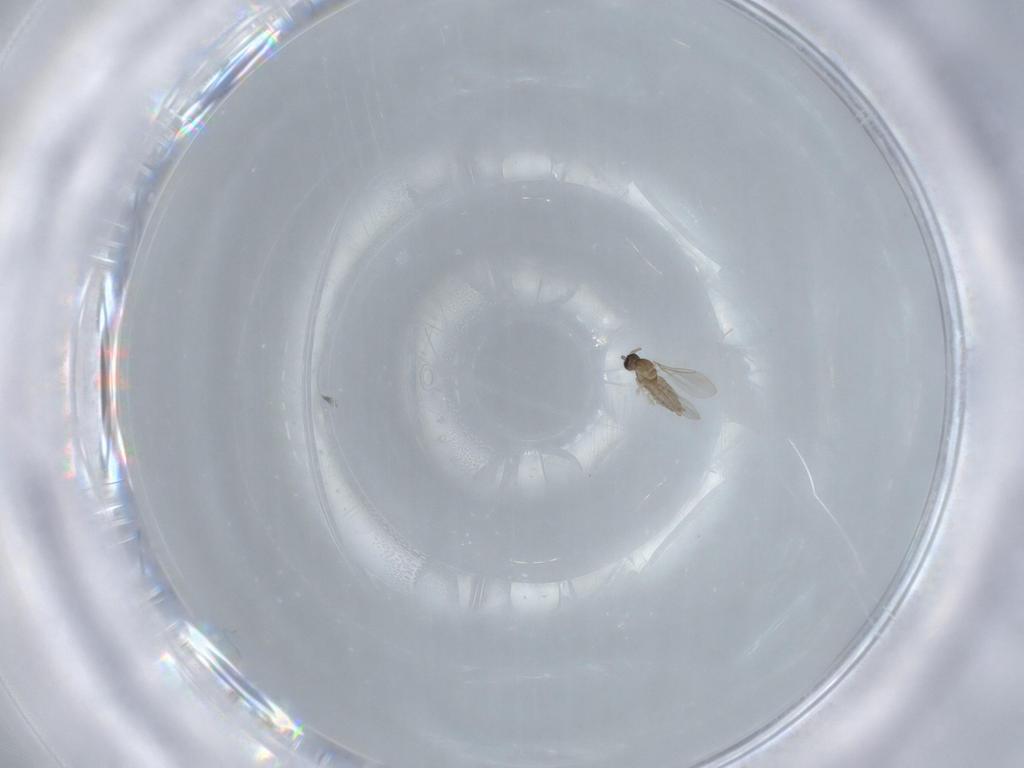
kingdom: Animalia
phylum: Arthropoda
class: Insecta
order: Diptera
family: Cecidomyiidae
